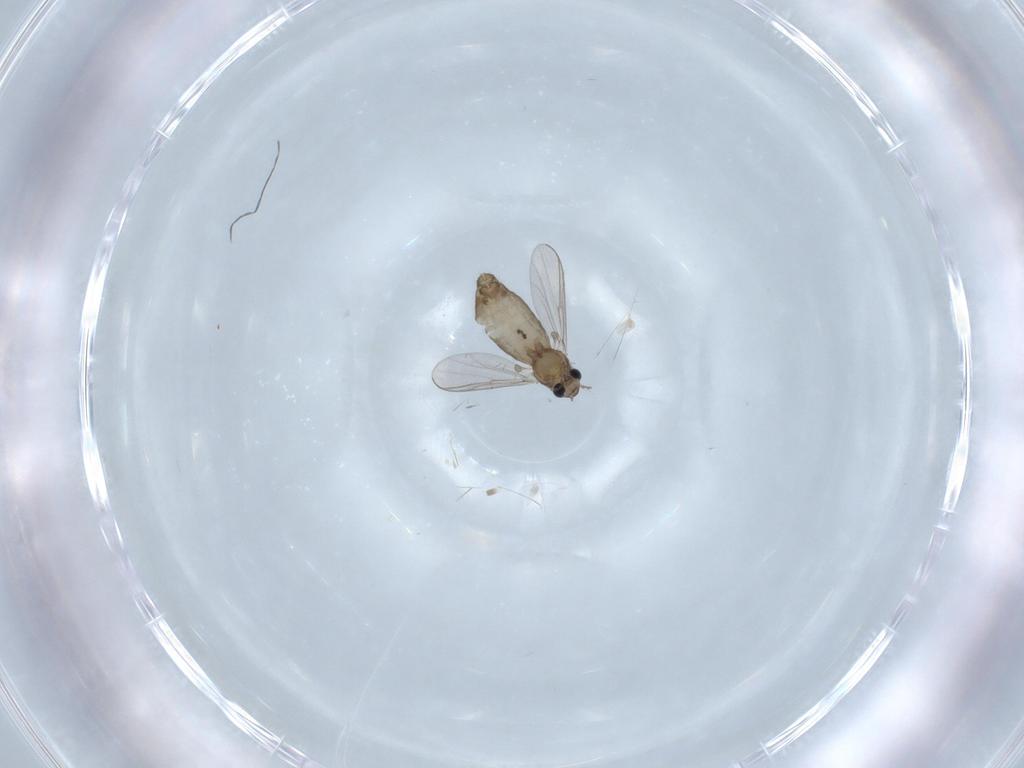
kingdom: Animalia
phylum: Arthropoda
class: Insecta
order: Diptera
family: Chironomidae
